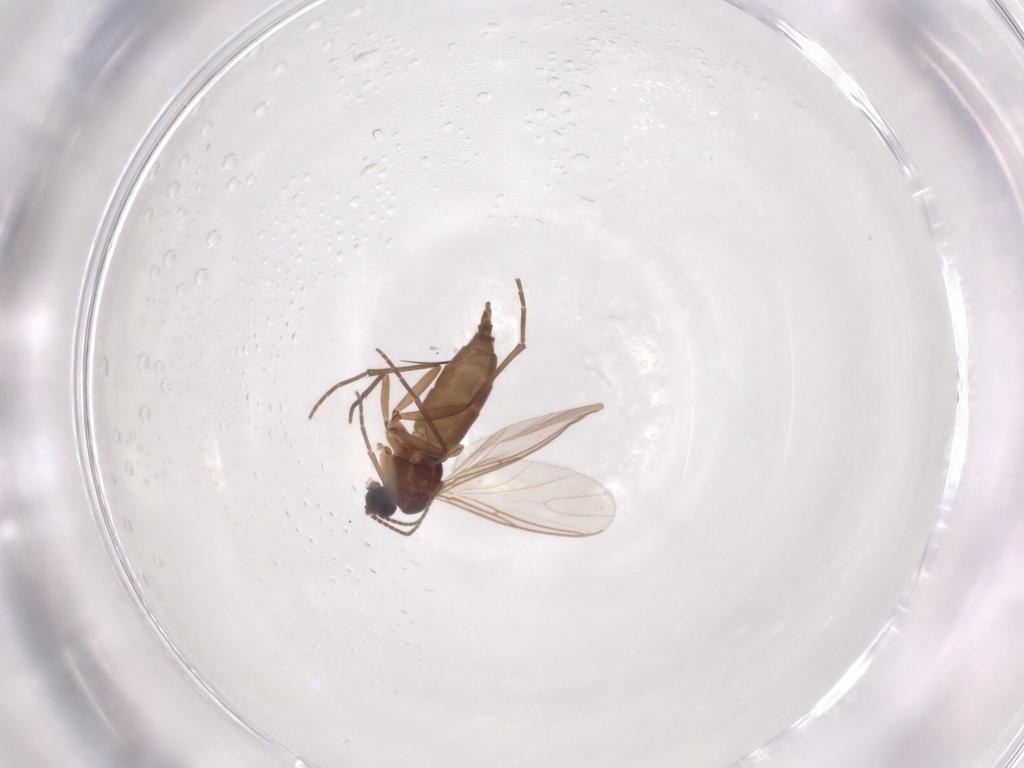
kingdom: Animalia
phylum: Arthropoda
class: Insecta
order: Diptera
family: Sciaridae
